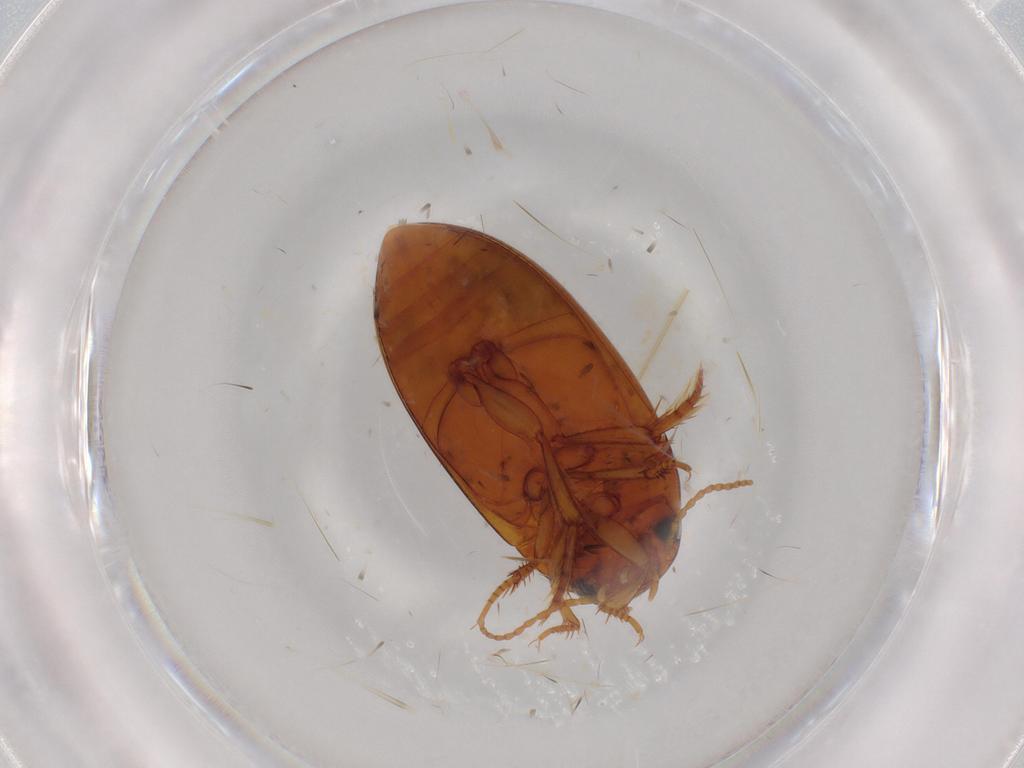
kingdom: Animalia
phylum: Arthropoda
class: Insecta
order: Coleoptera
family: Dytiscidae
